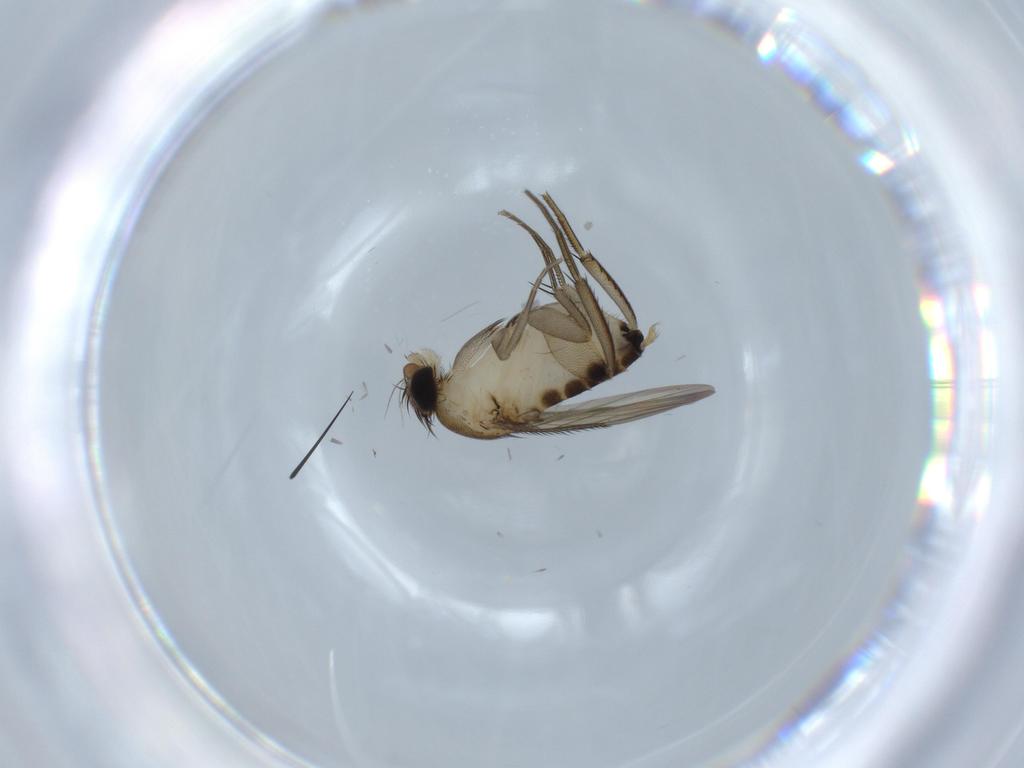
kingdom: Animalia
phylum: Arthropoda
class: Insecta
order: Diptera
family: Phoridae
